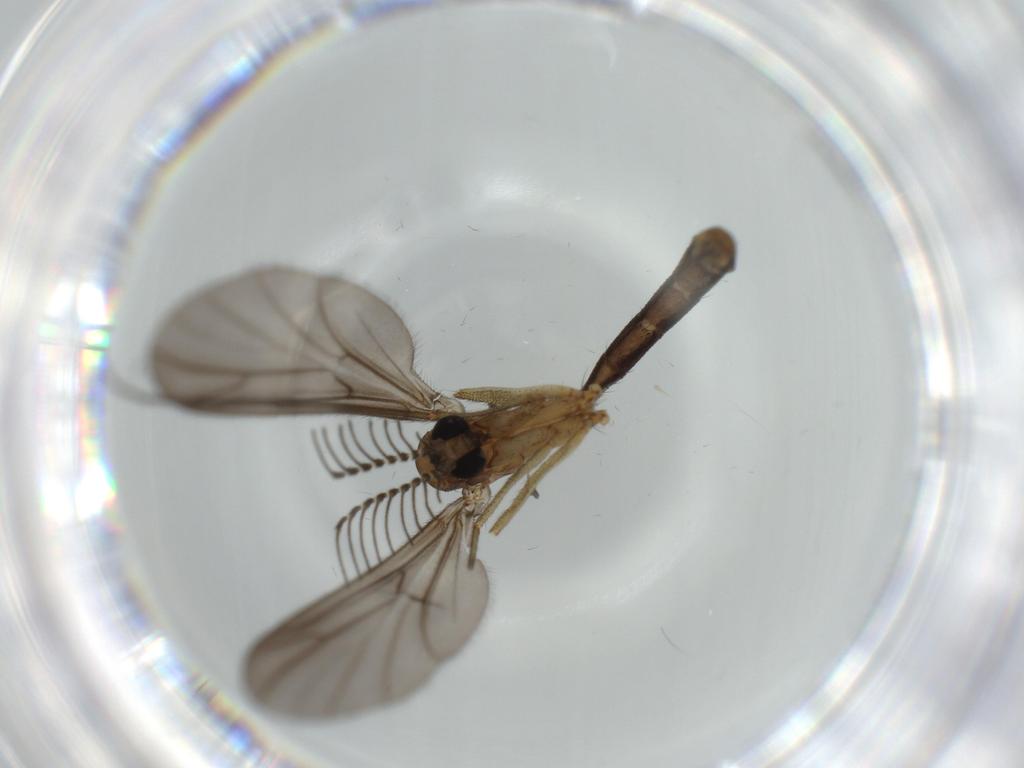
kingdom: Animalia
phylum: Arthropoda
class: Insecta
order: Diptera
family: Ditomyiidae
